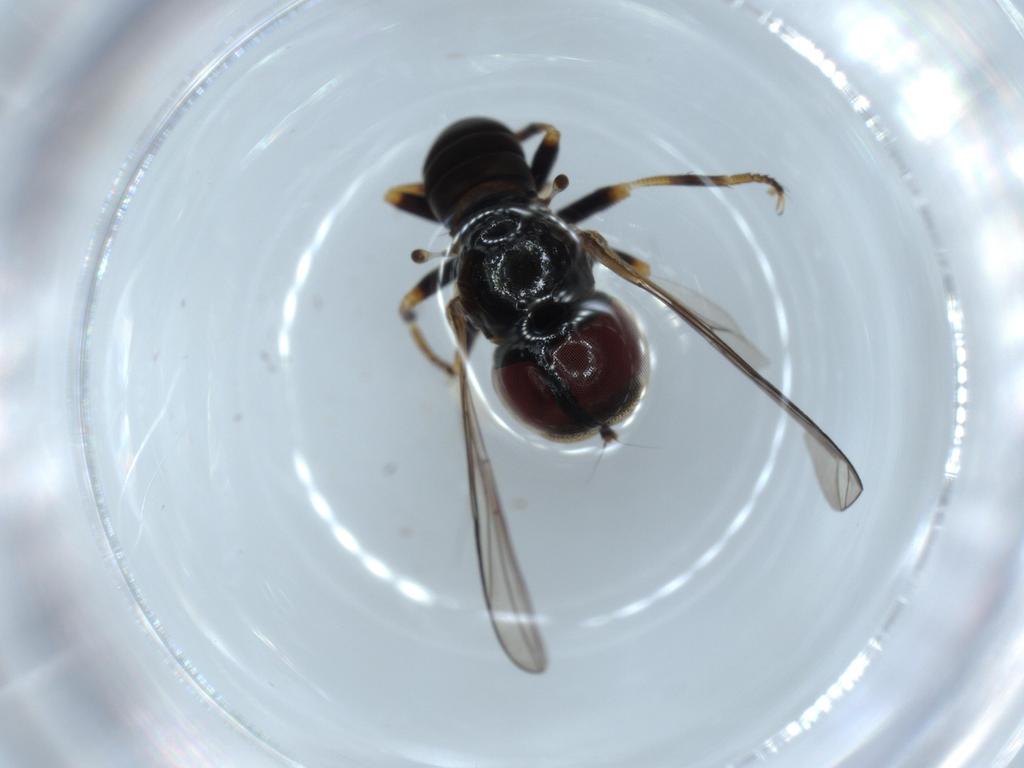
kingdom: Animalia
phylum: Arthropoda
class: Insecta
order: Diptera
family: Pipunculidae
